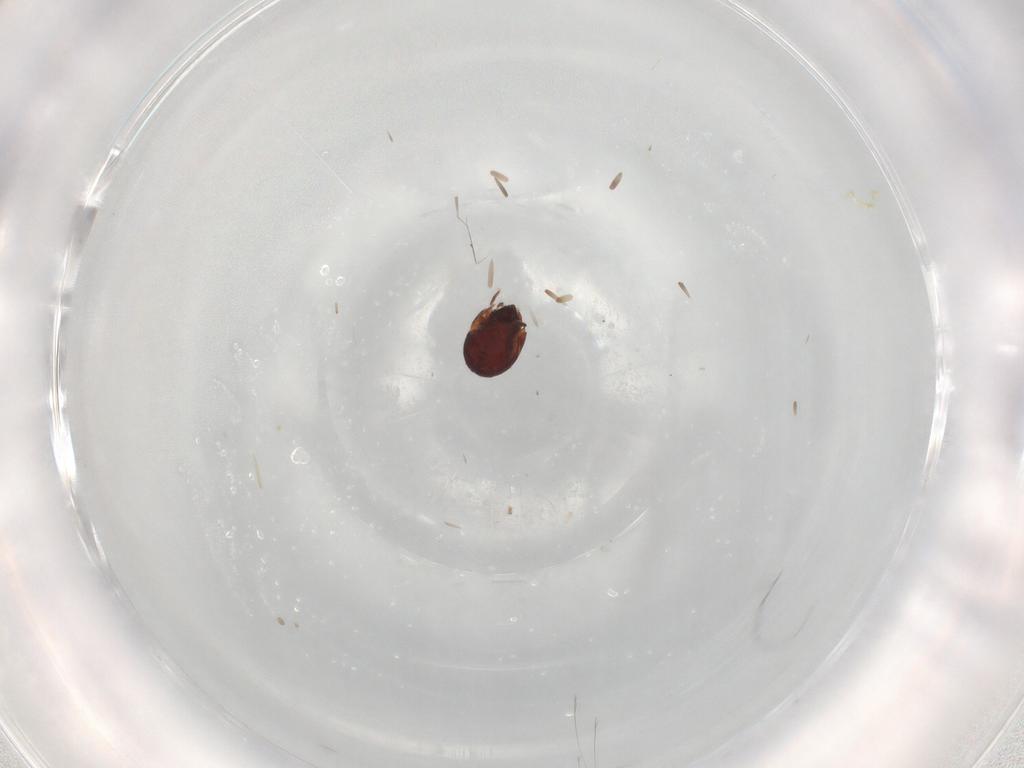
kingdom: Animalia
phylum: Arthropoda
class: Arachnida
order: Sarcoptiformes
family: Humerobatidae
